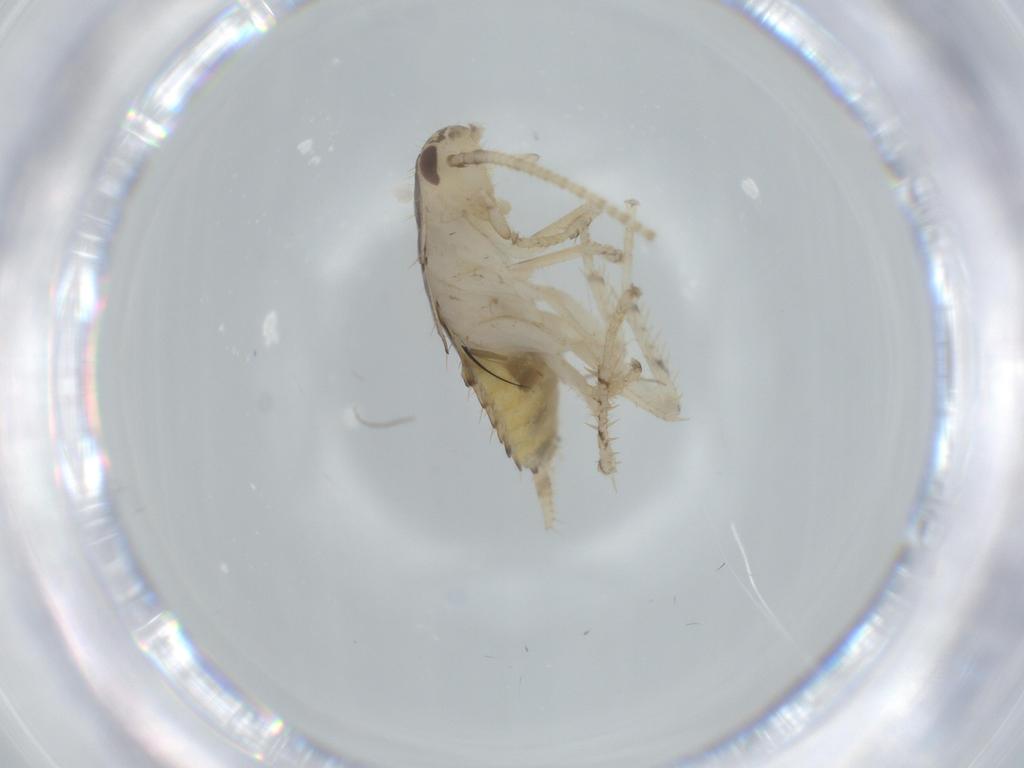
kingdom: Animalia
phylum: Arthropoda
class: Insecta
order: Blattodea
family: Ectobiidae
